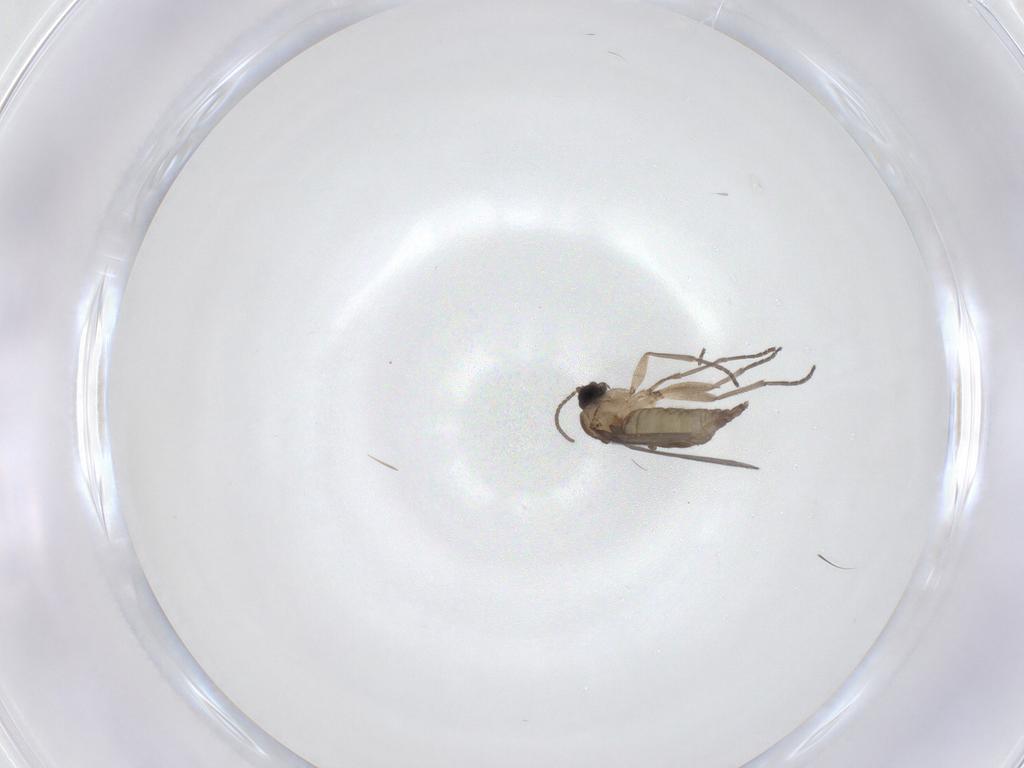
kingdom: Animalia
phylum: Arthropoda
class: Insecta
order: Diptera
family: Sciaridae
